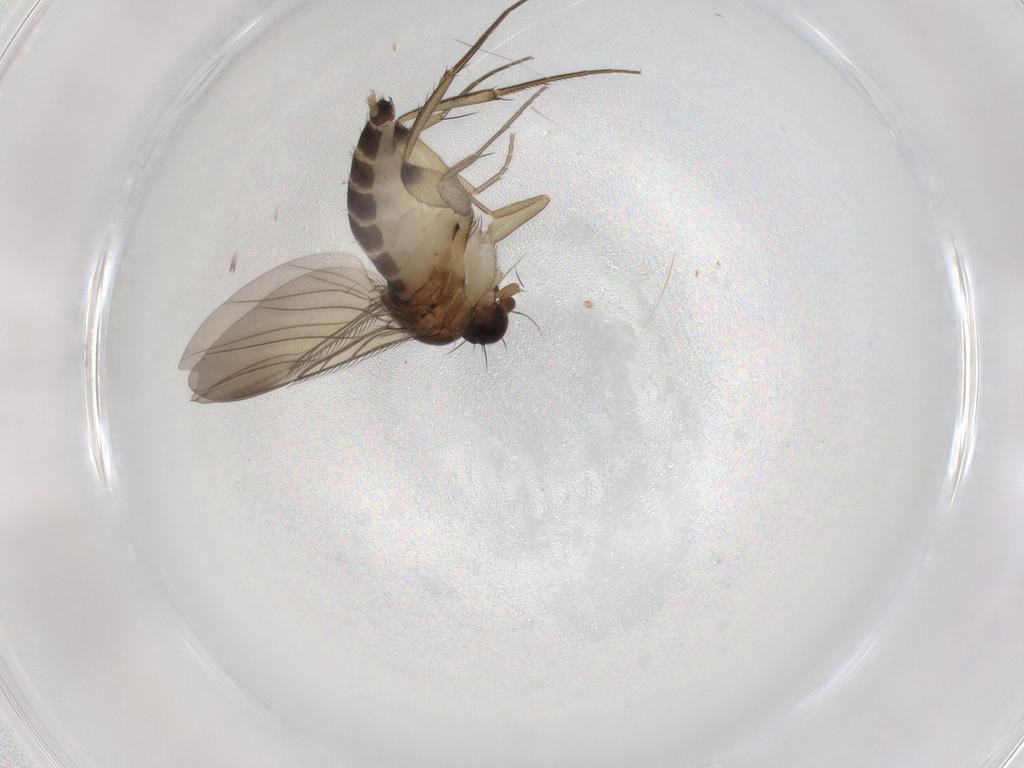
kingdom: Animalia
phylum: Arthropoda
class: Insecta
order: Diptera
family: Phoridae
